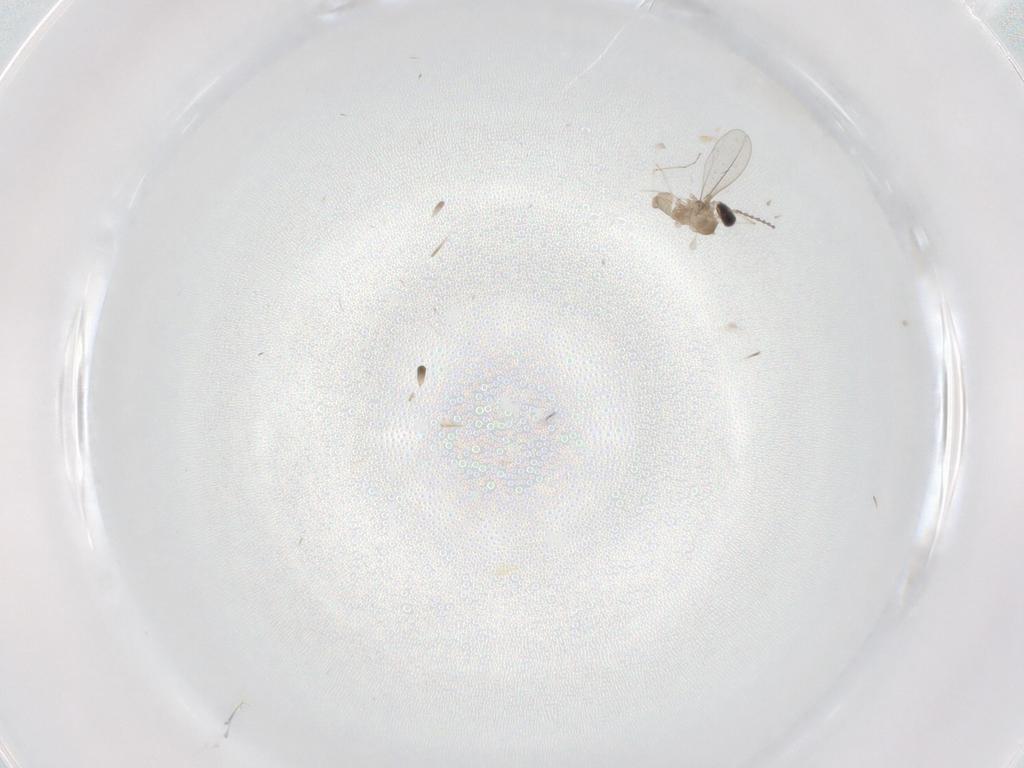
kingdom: Animalia
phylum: Arthropoda
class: Insecta
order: Diptera
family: Cecidomyiidae
